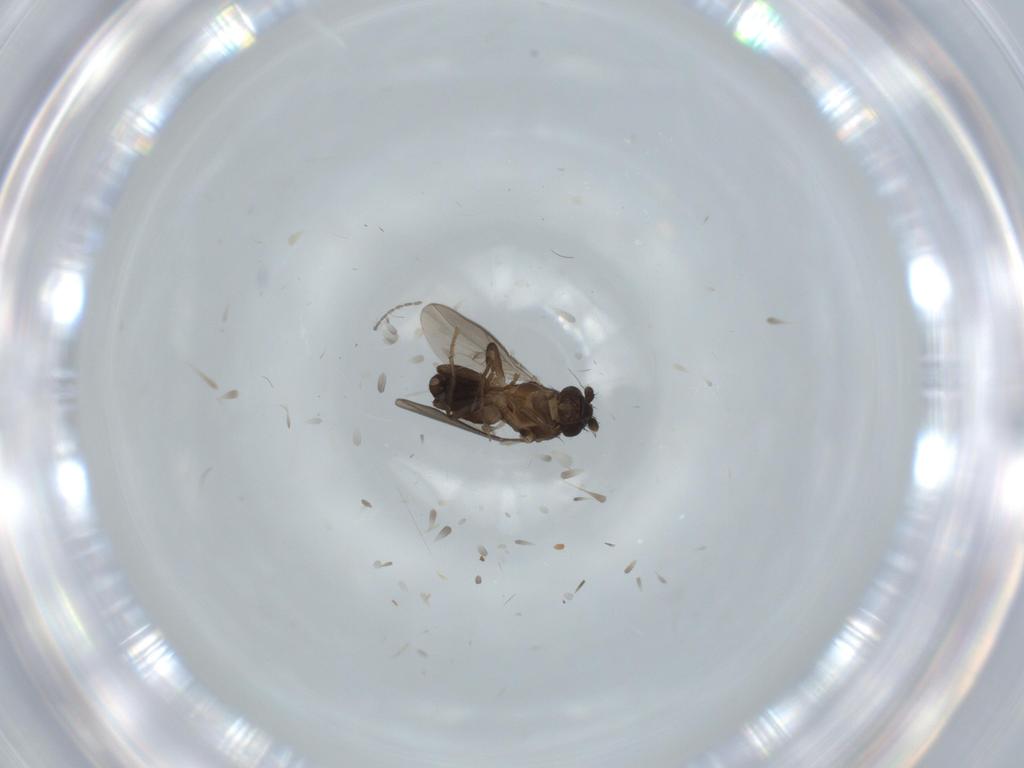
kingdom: Animalia
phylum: Arthropoda
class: Insecta
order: Diptera
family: Sphaeroceridae
